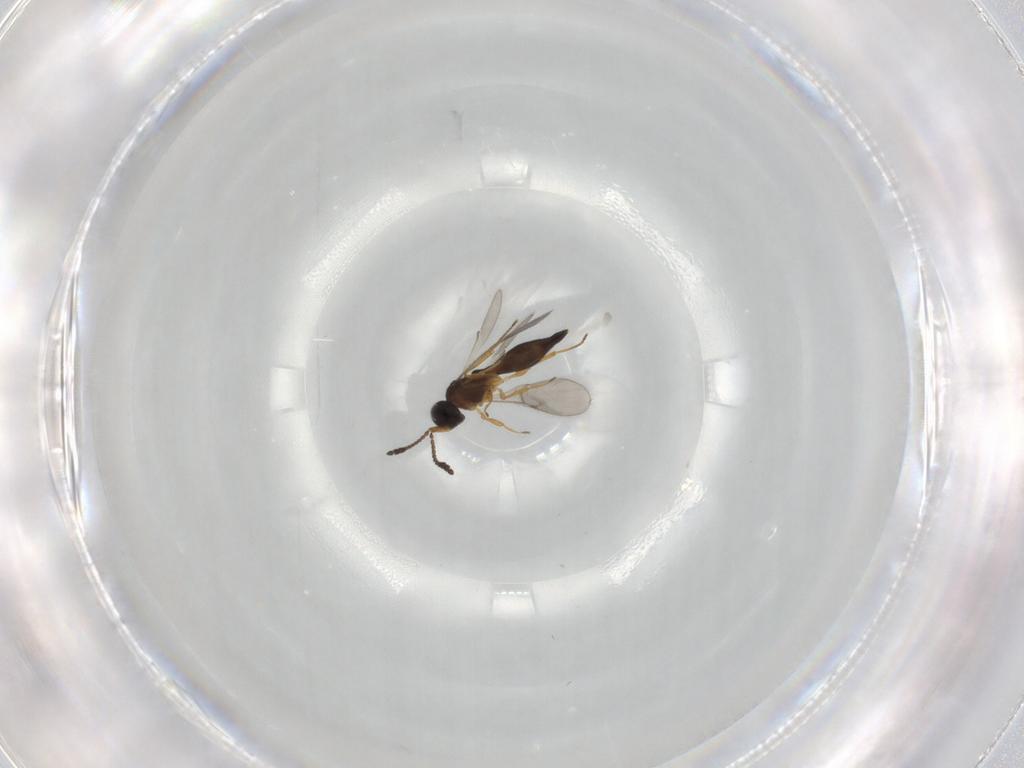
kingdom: Animalia
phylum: Arthropoda
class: Insecta
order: Hymenoptera
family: Scelionidae
